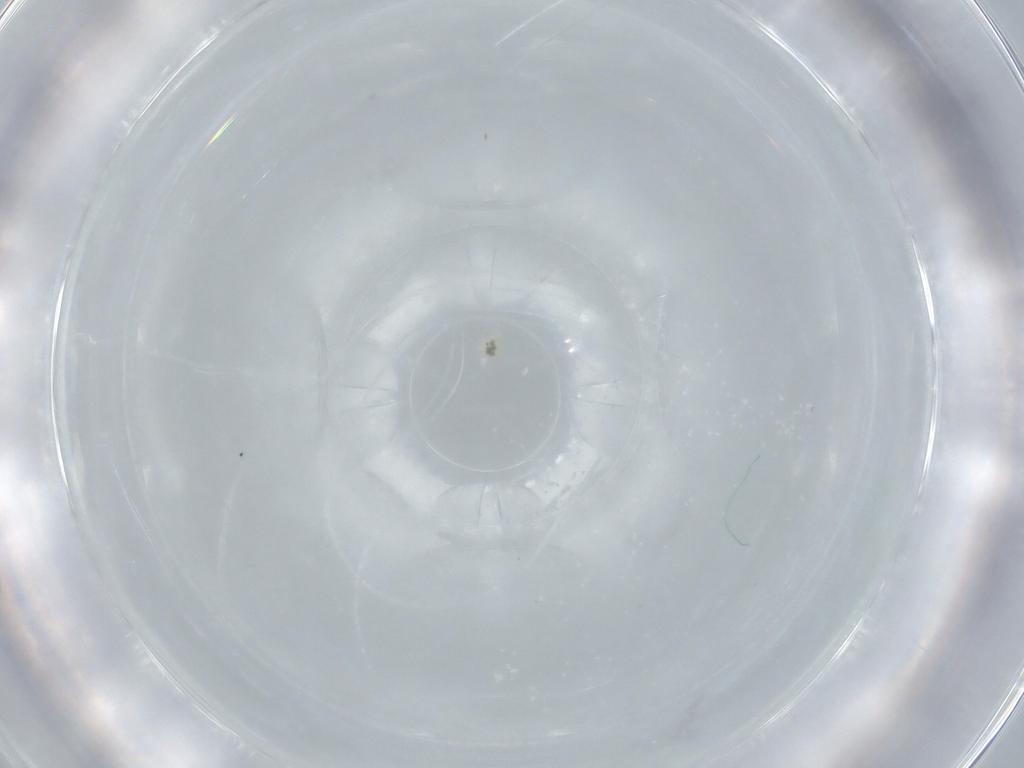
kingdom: Animalia
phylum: Arthropoda
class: Insecta
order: Diptera
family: Cecidomyiidae
